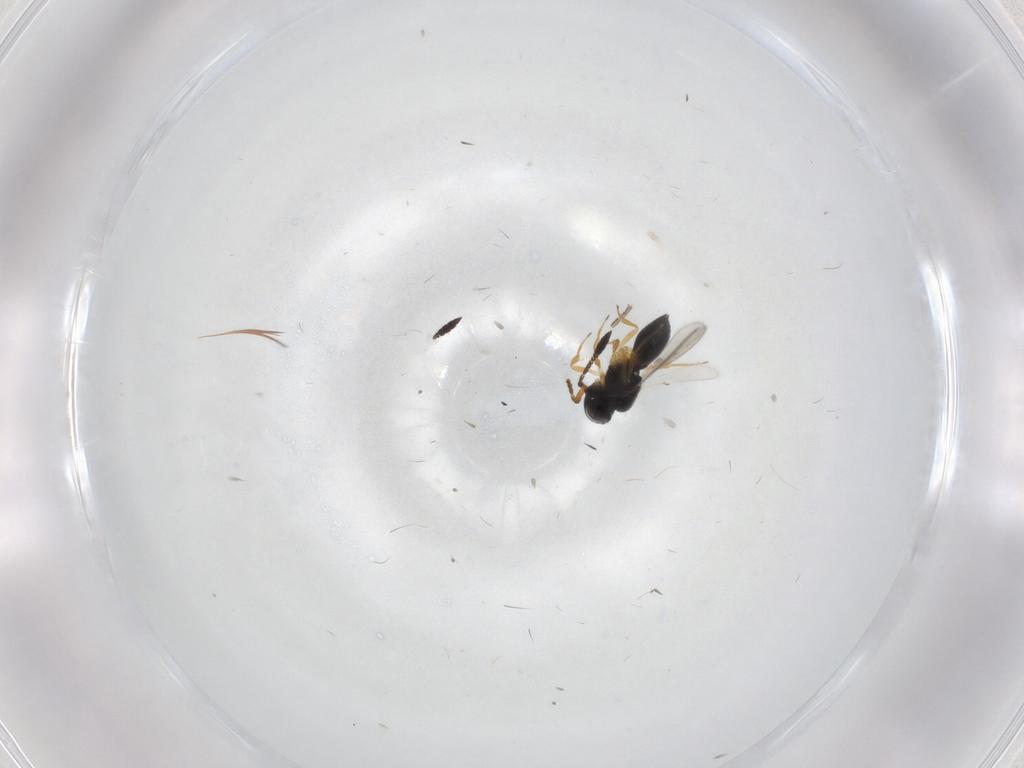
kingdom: Animalia
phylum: Arthropoda
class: Insecta
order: Hymenoptera
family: Scelionidae
